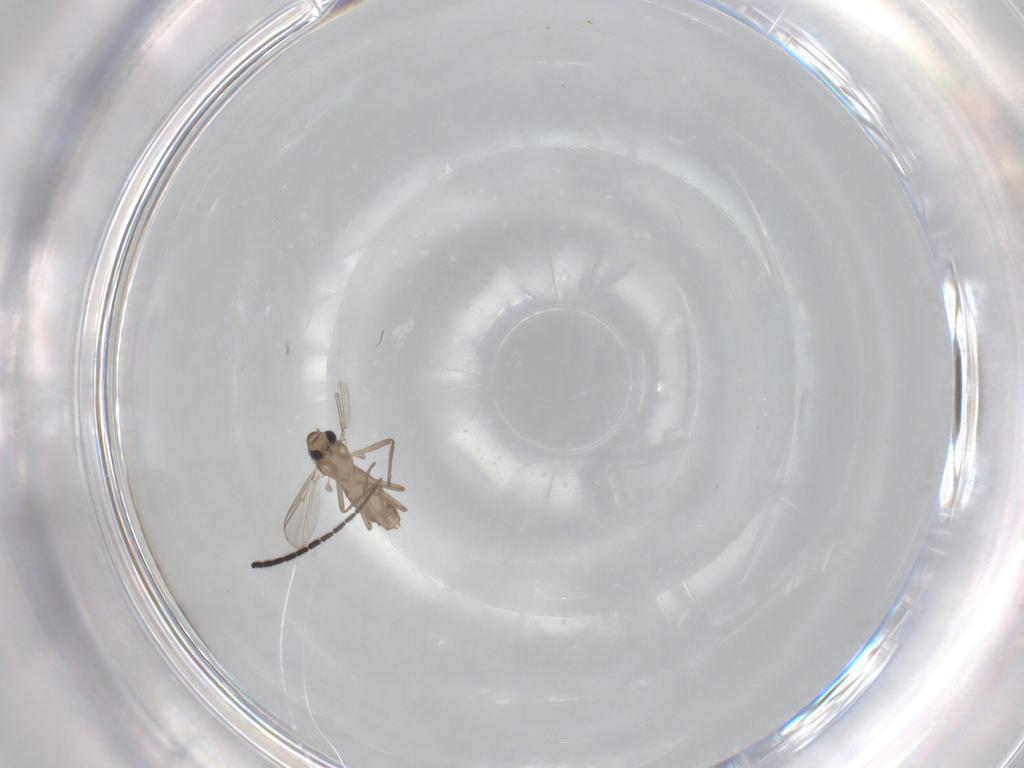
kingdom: Animalia
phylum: Arthropoda
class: Insecta
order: Diptera
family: Chironomidae
